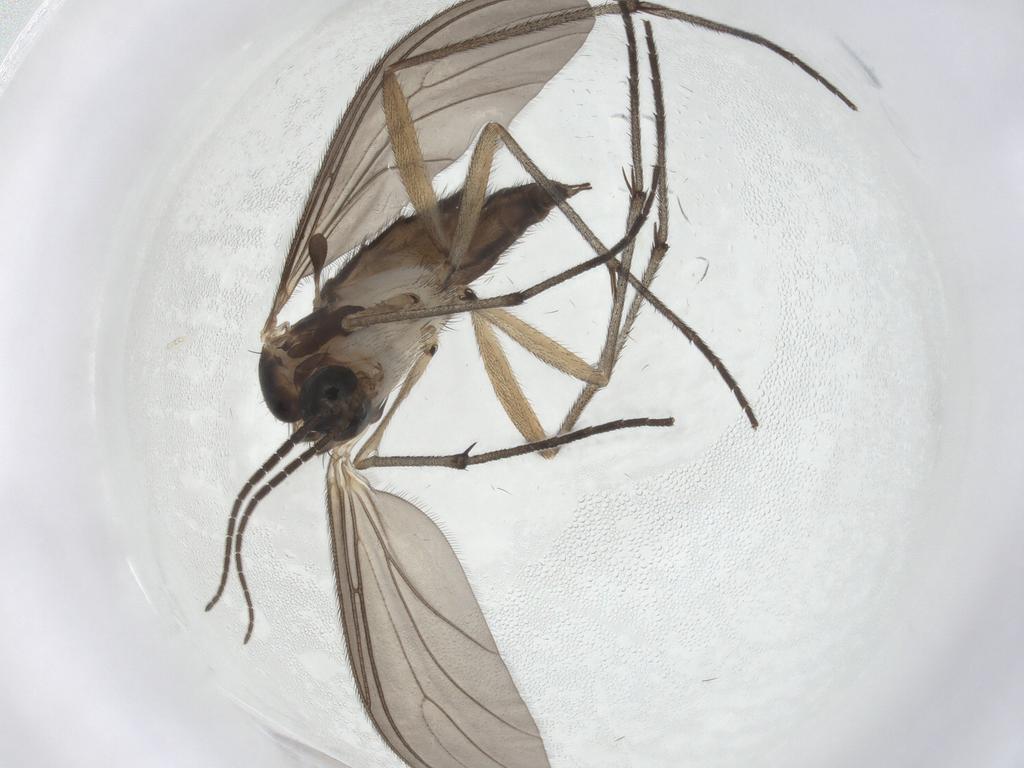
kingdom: Animalia
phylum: Arthropoda
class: Insecta
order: Diptera
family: Sciaridae
